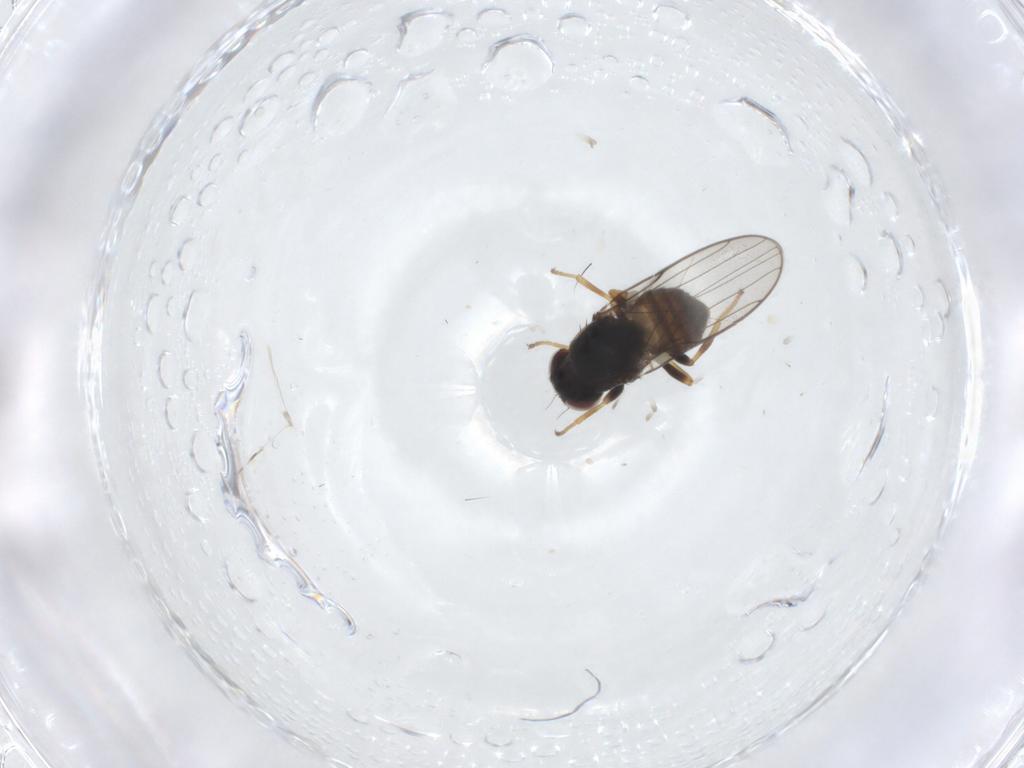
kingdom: Animalia
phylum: Arthropoda
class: Insecta
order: Diptera
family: Chloropidae
